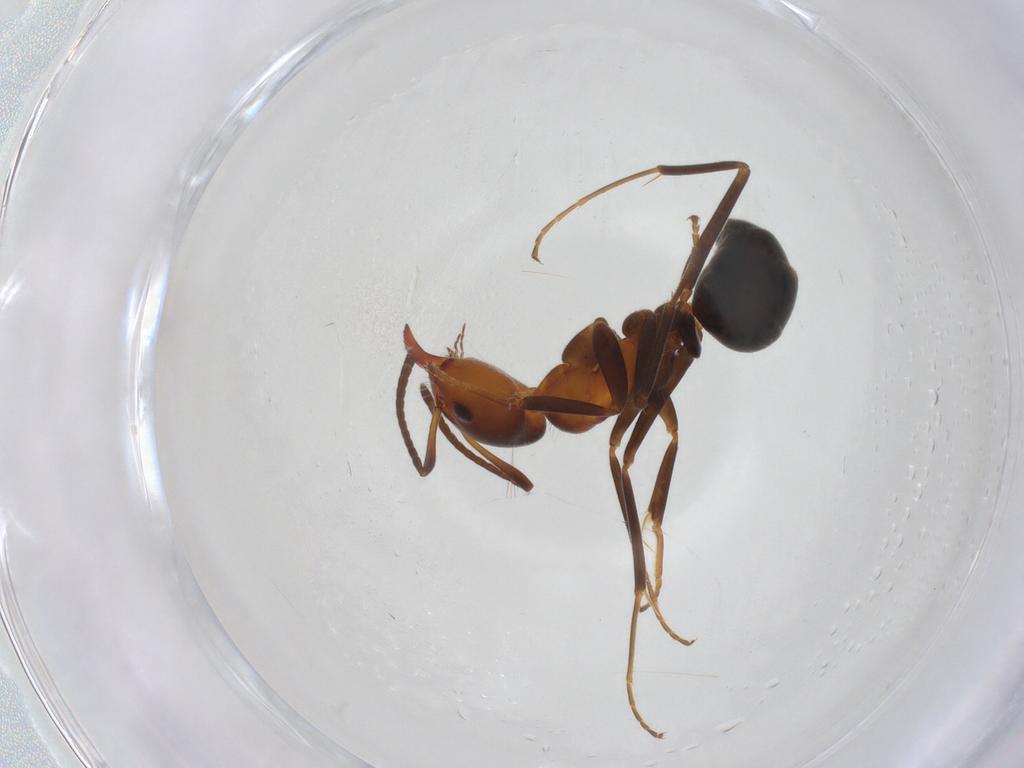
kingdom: Animalia
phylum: Arthropoda
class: Insecta
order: Hymenoptera
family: Formicidae
